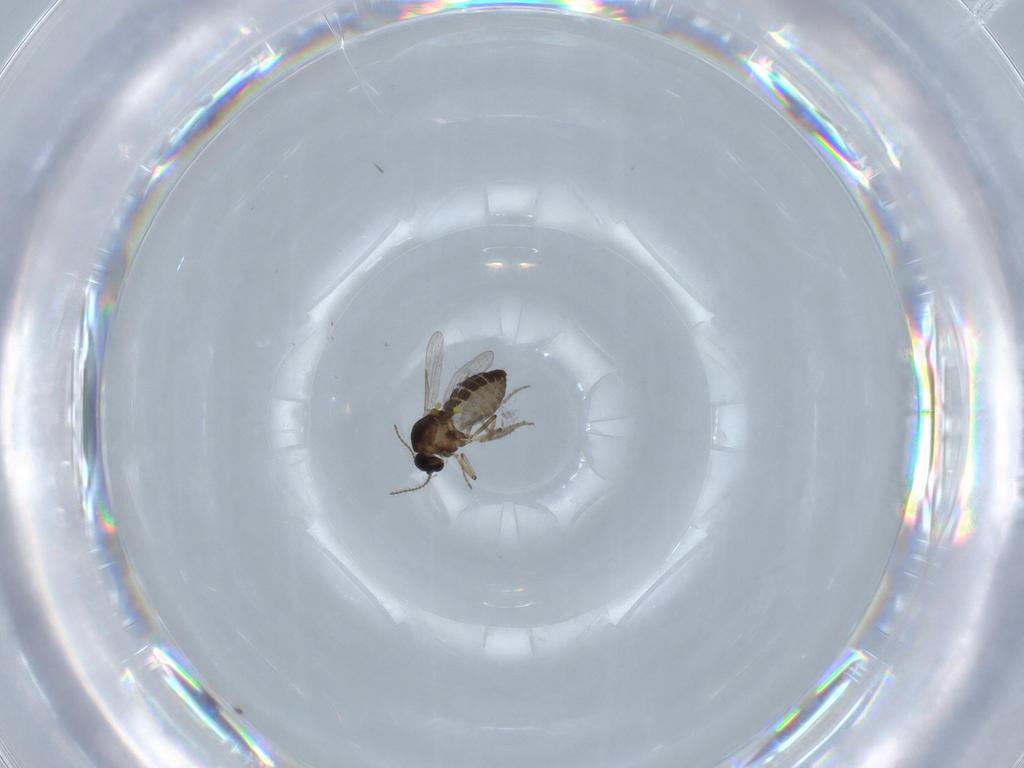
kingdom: Animalia
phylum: Arthropoda
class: Insecta
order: Diptera
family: Ceratopogonidae
